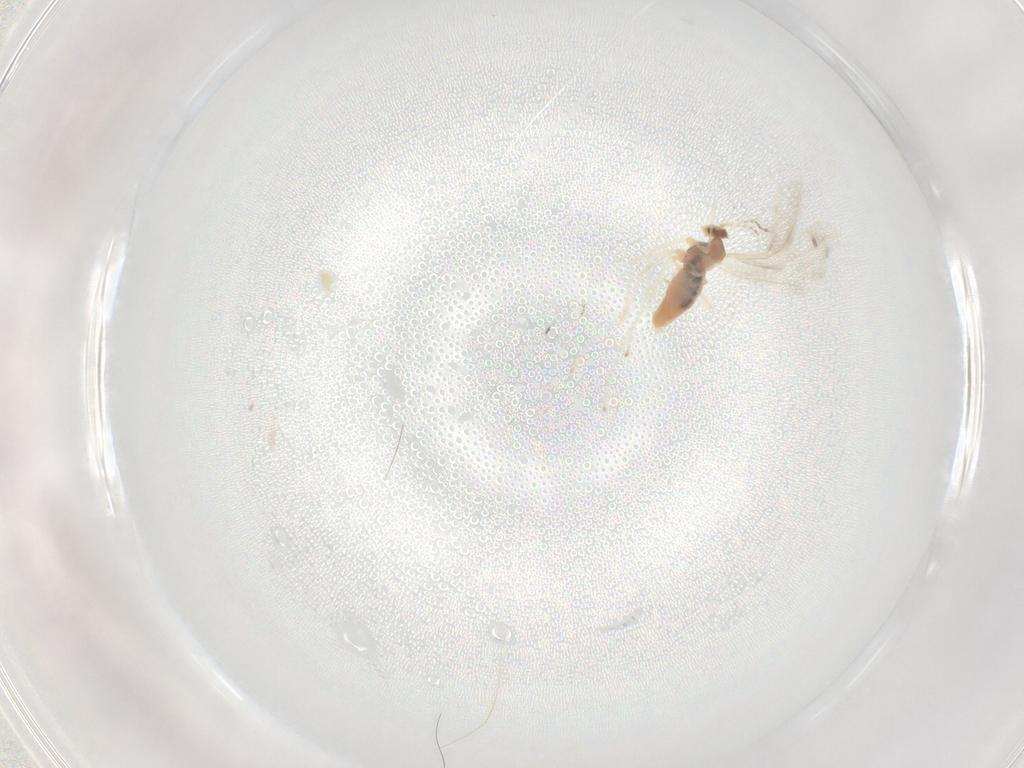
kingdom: Animalia
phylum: Arthropoda
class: Insecta
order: Diptera
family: Cecidomyiidae
